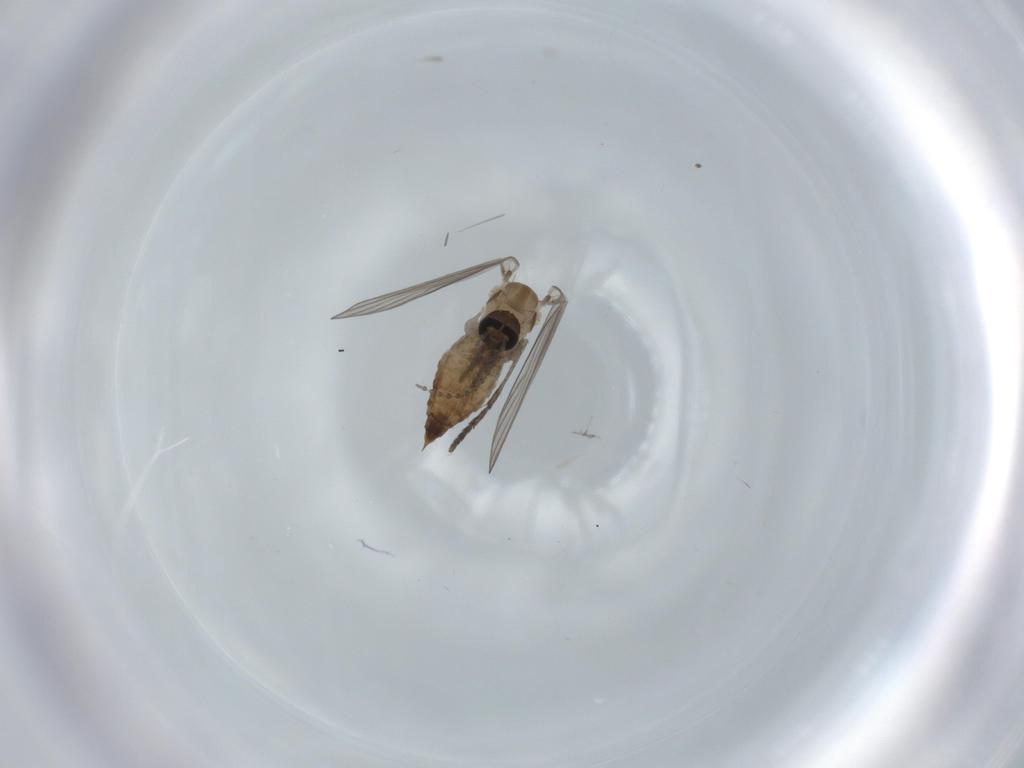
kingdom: Animalia
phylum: Arthropoda
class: Insecta
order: Diptera
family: Psychodidae
